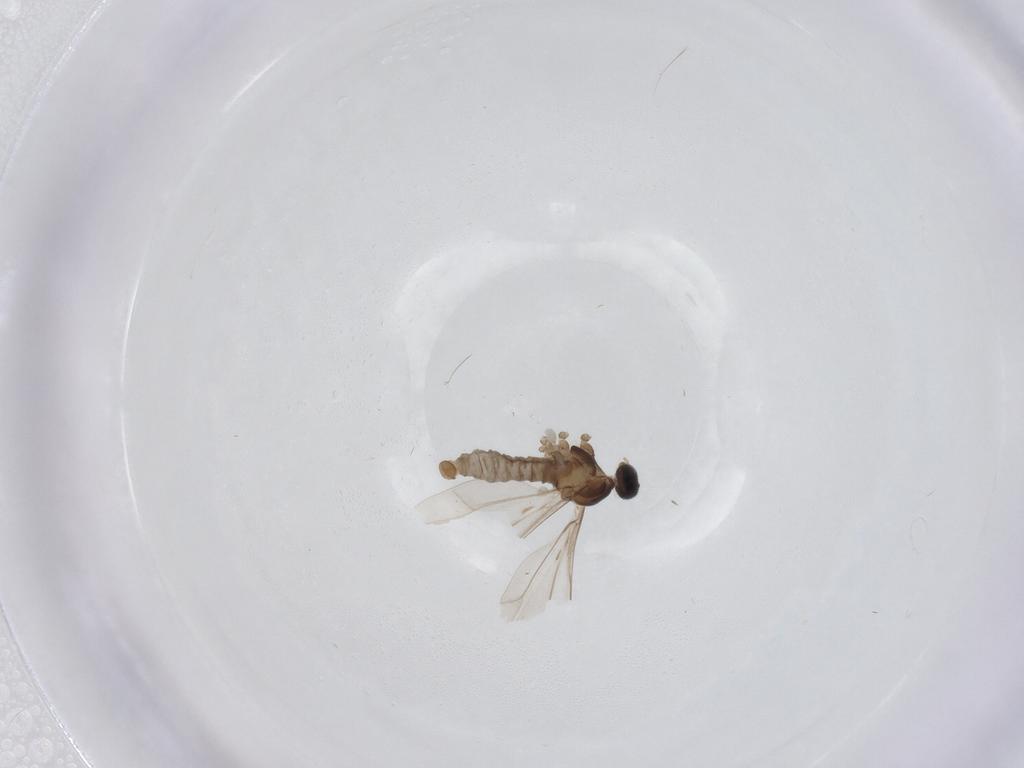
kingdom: Animalia
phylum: Arthropoda
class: Insecta
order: Diptera
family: Cecidomyiidae
